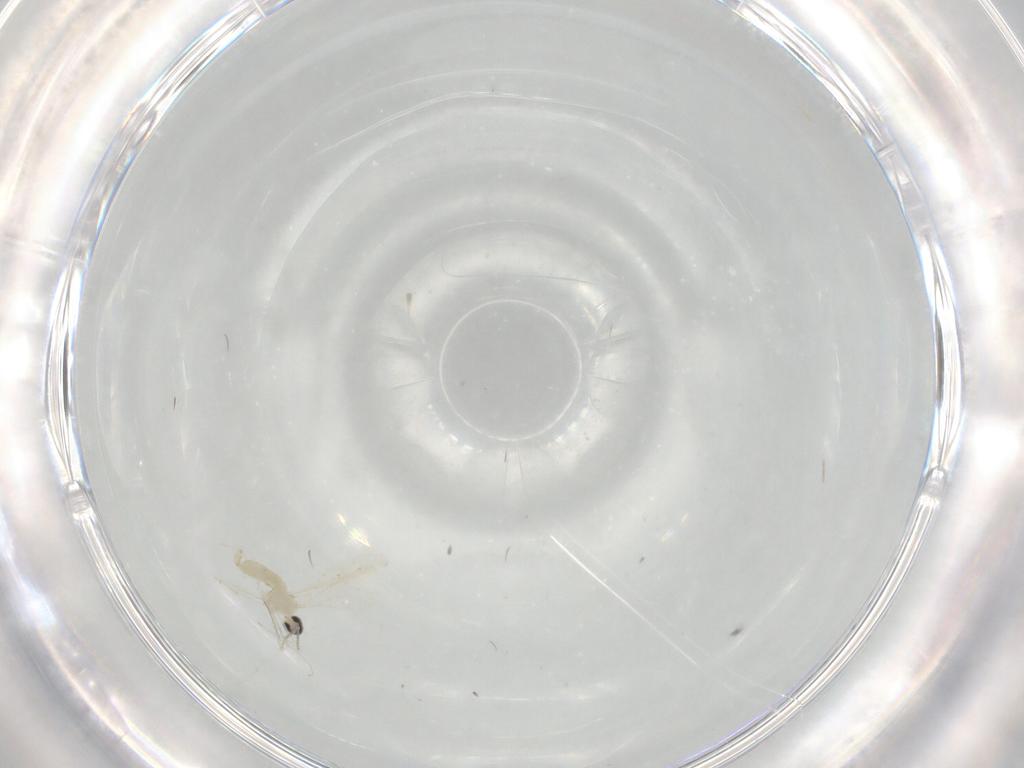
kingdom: Animalia
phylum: Arthropoda
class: Insecta
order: Diptera
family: Cecidomyiidae
